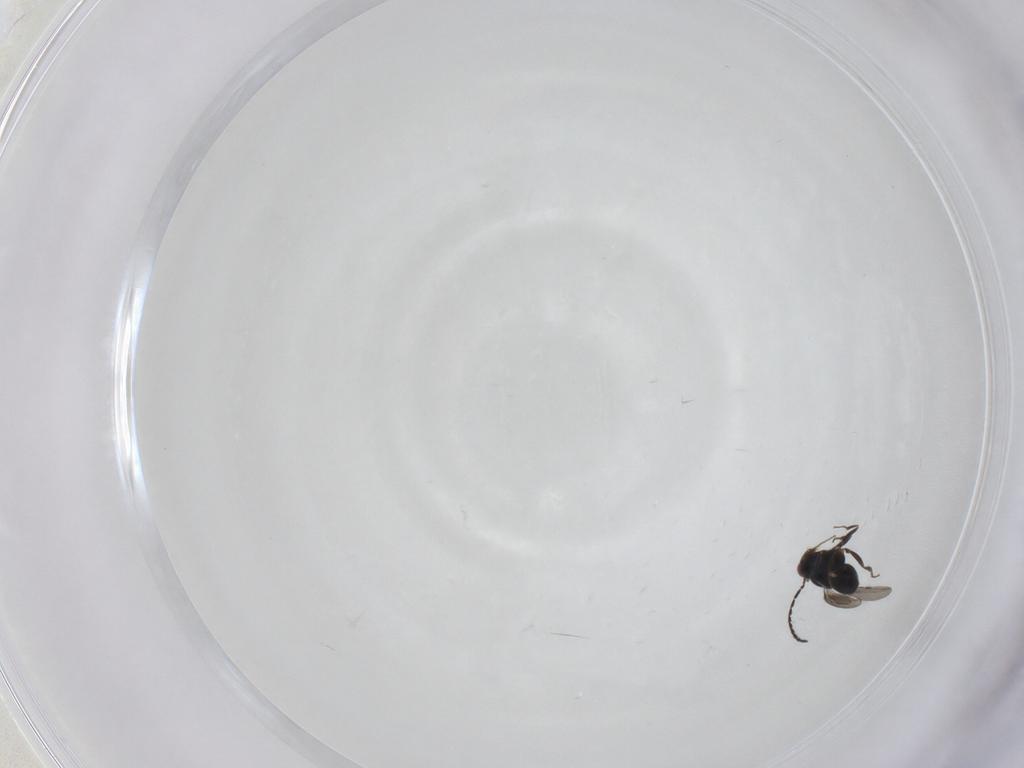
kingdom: Animalia
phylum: Arthropoda
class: Insecta
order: Hymenoptera
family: Ceraphronidae
